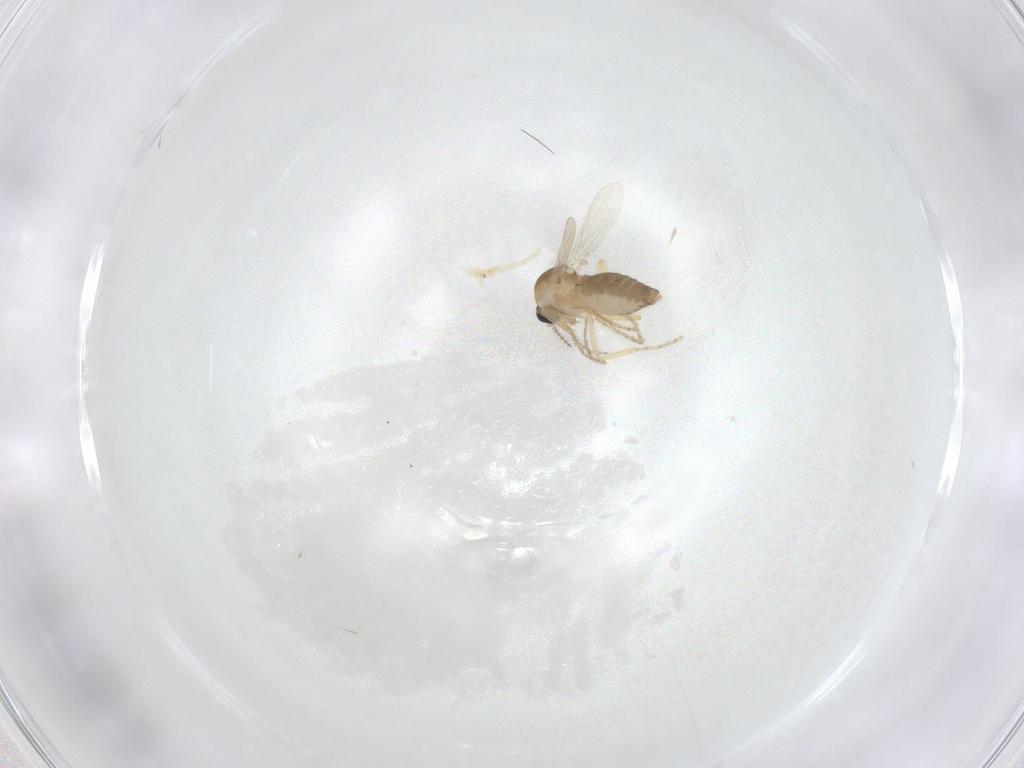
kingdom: Animalia
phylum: Arthropoda
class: Insecta
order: Diptera
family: Ceratopogonidae
